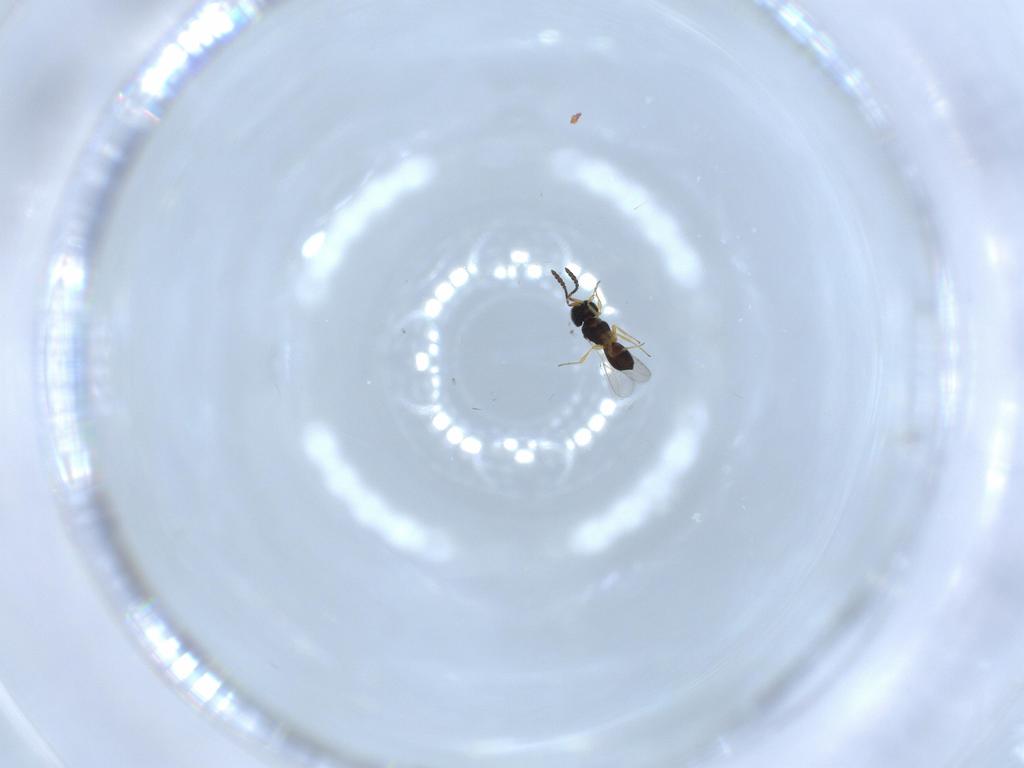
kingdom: Animalia
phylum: Arthropoda
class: Insecta
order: Hymenoptera
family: Scelionidae
